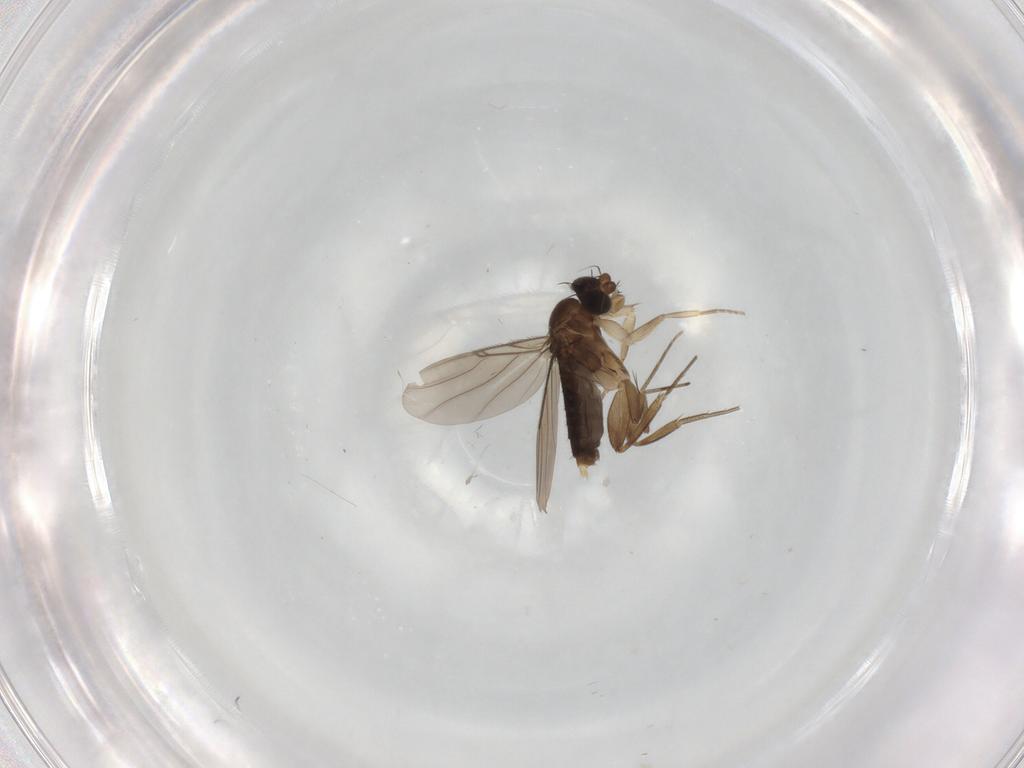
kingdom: Animalia
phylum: Arthropoda
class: Insecta
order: Diptera
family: Phoridae
